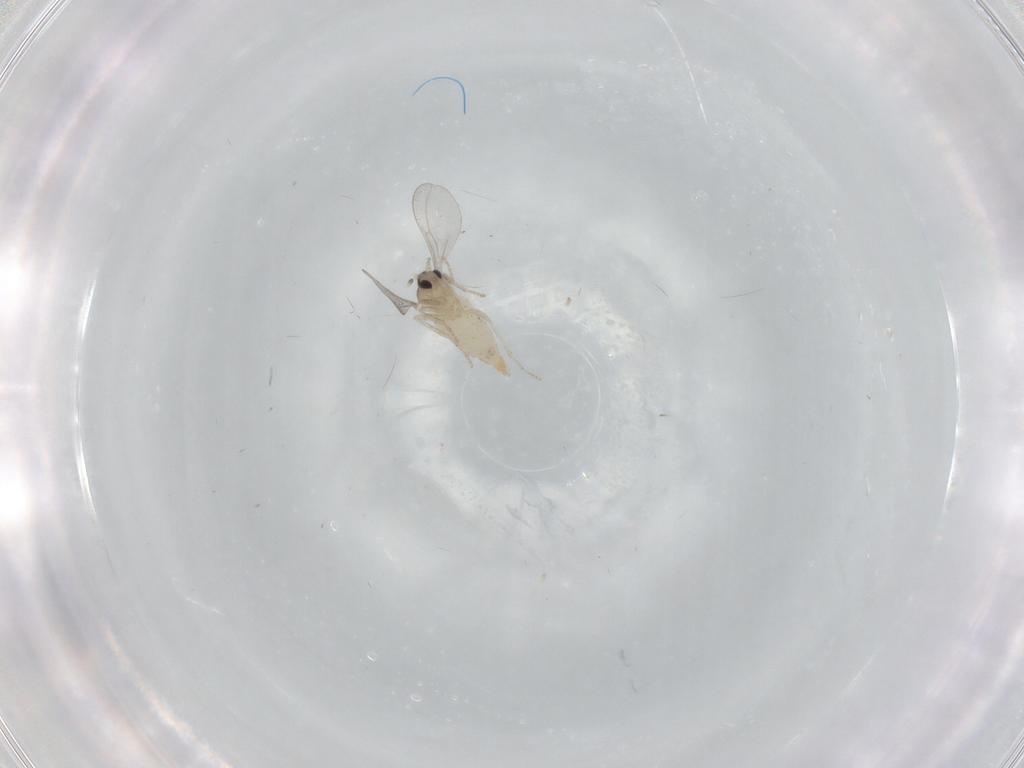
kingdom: Animalia
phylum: Arthropoda
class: Insecta
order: Diptera
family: Cecidomyiidae
